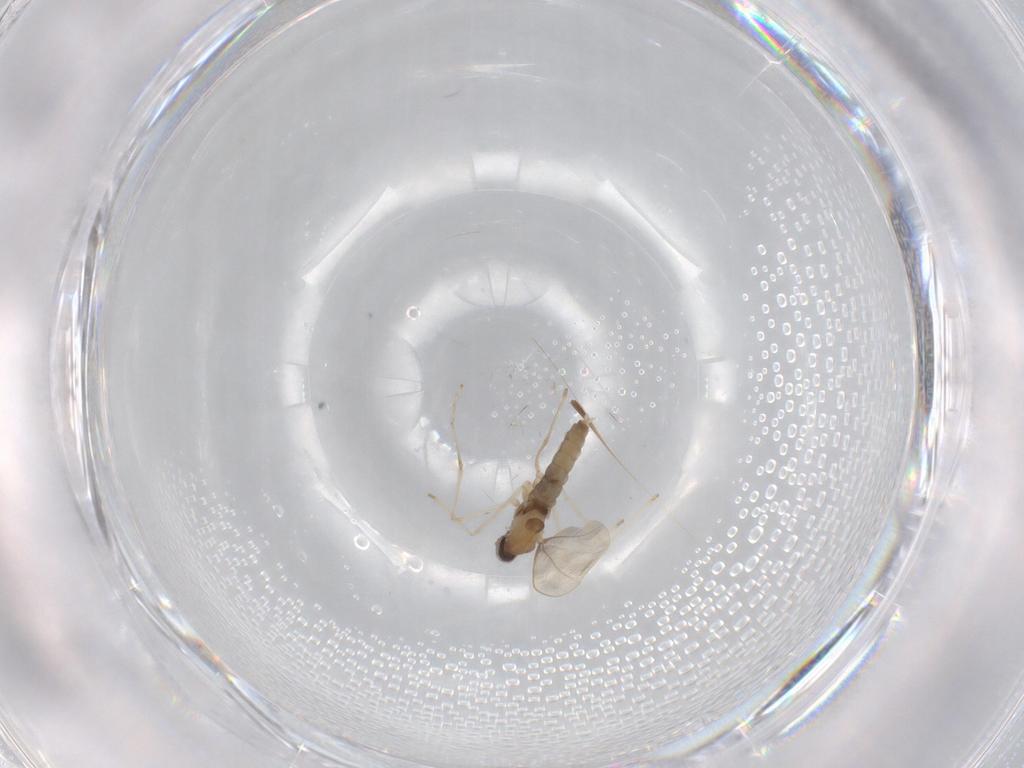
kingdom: Animalia
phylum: Arthropoda
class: Insecta
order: Diptera
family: Cecidomyiidae
